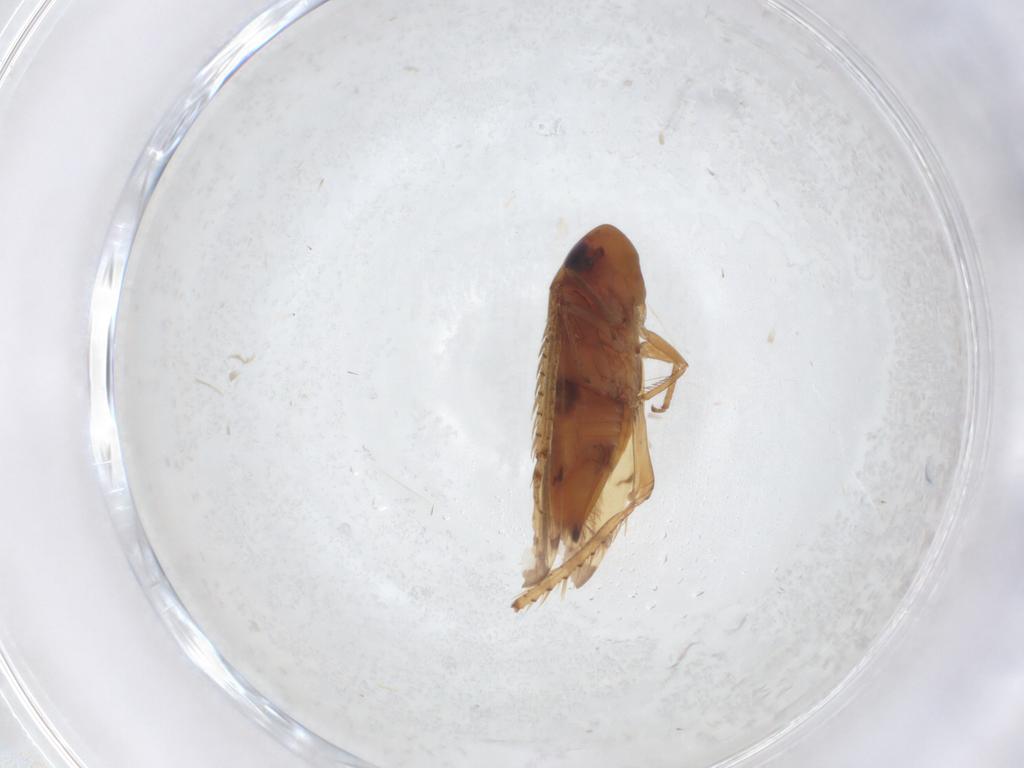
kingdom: Animalia
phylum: Arthropoda
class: Insecta
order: Hemiptera
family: Cicadellidae
